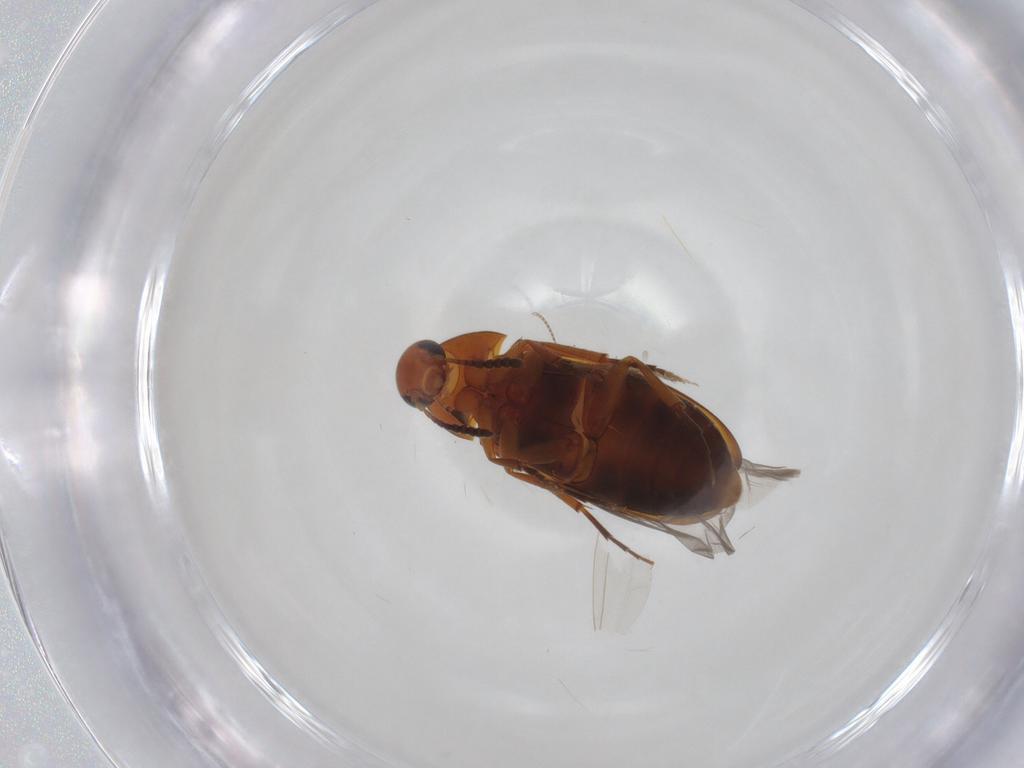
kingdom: Animalia
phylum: Arthropoda
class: Insecta
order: Coleoptera
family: Scraptiidae
